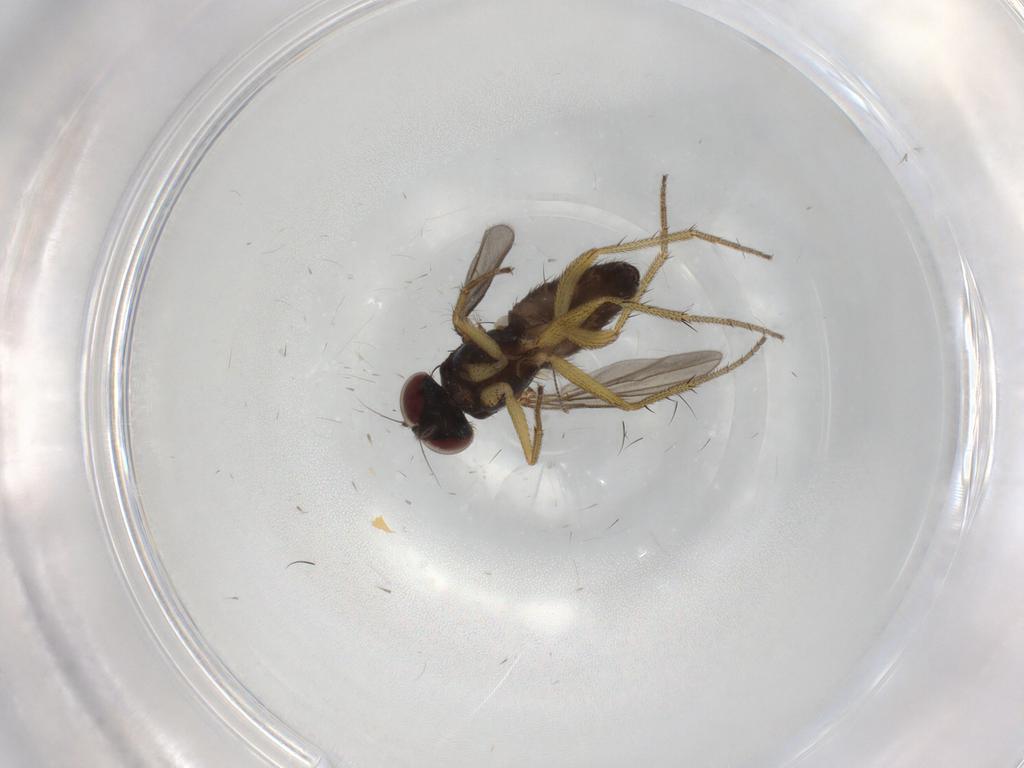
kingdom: Animalia
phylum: Arthropoda
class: Insecta
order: Diptera
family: Dolichopodidae
